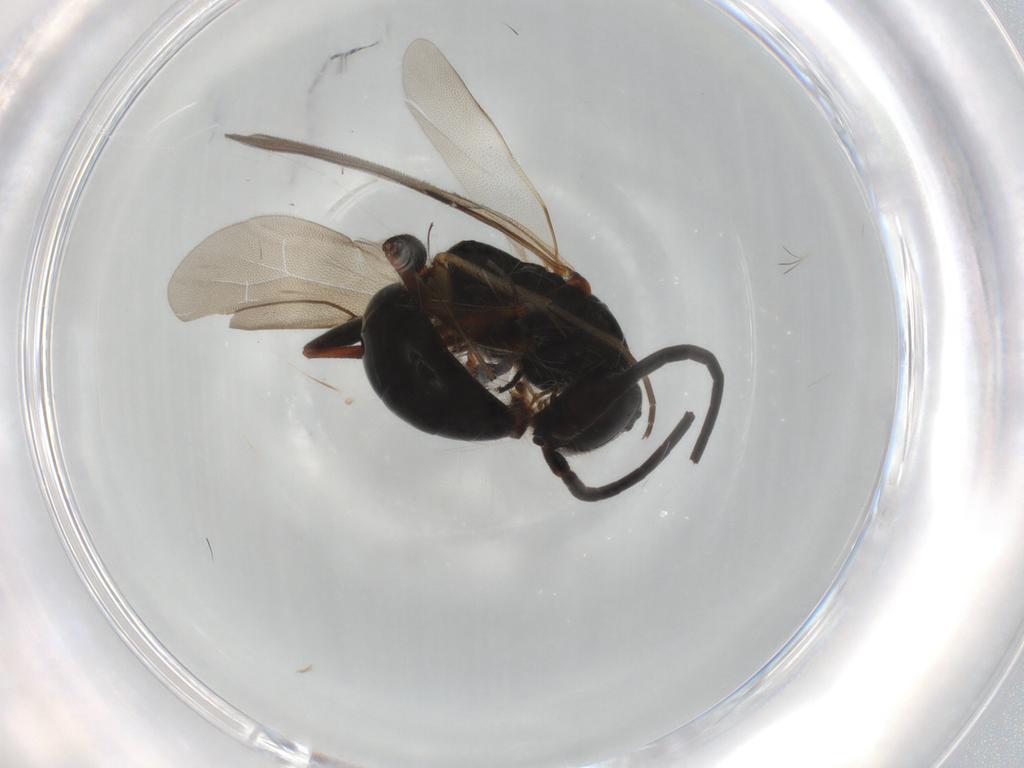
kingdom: Animalia
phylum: Arthropoda
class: Insecta
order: Hymenoptera
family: Bethylidae
